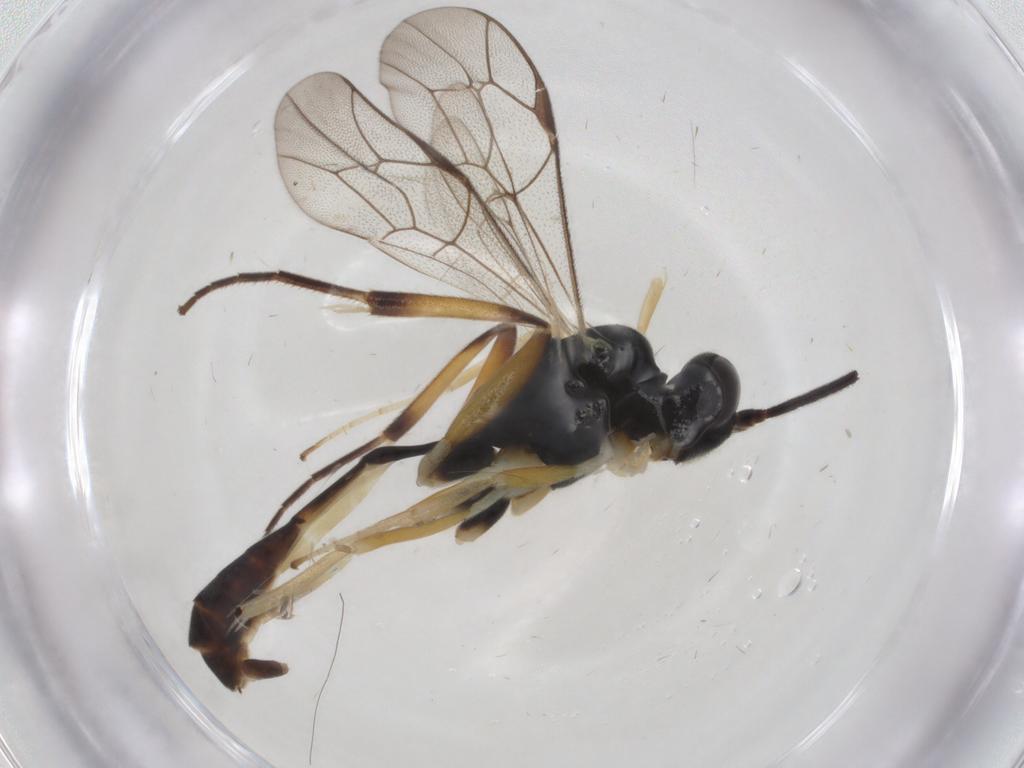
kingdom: Animalia
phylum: Arthropoda
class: Insecta
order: Hymenoptera
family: Ichneumonidae
